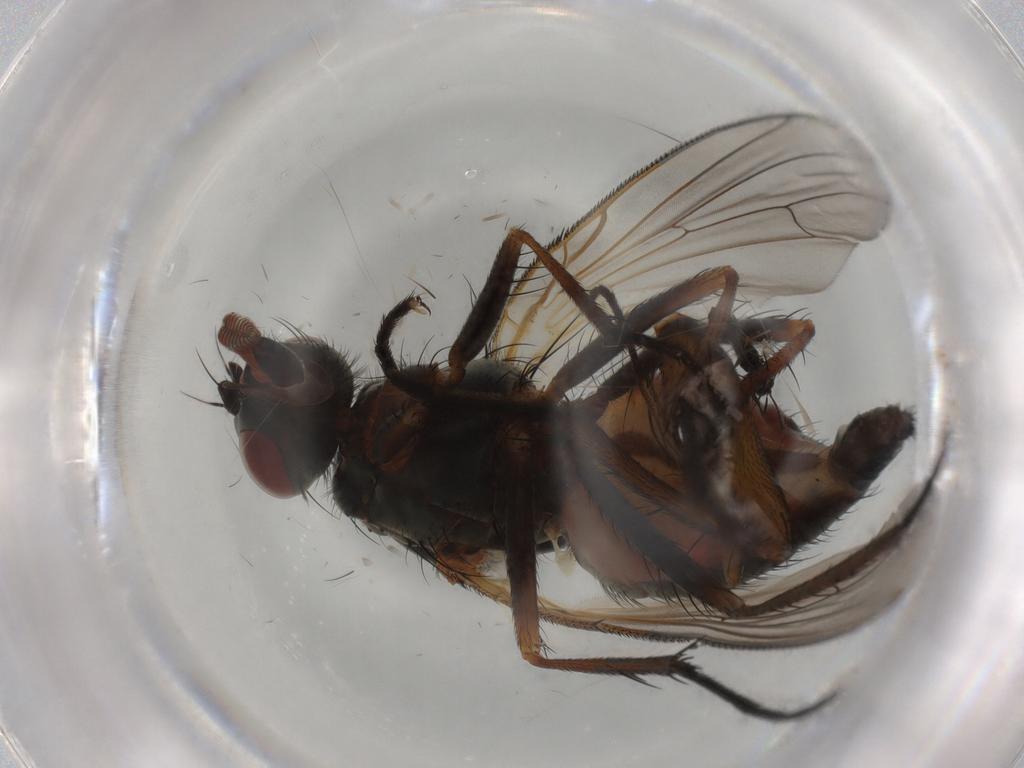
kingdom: Animalia
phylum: Arthropoda
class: Insecta
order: Diptera
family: Anthomyiidae
